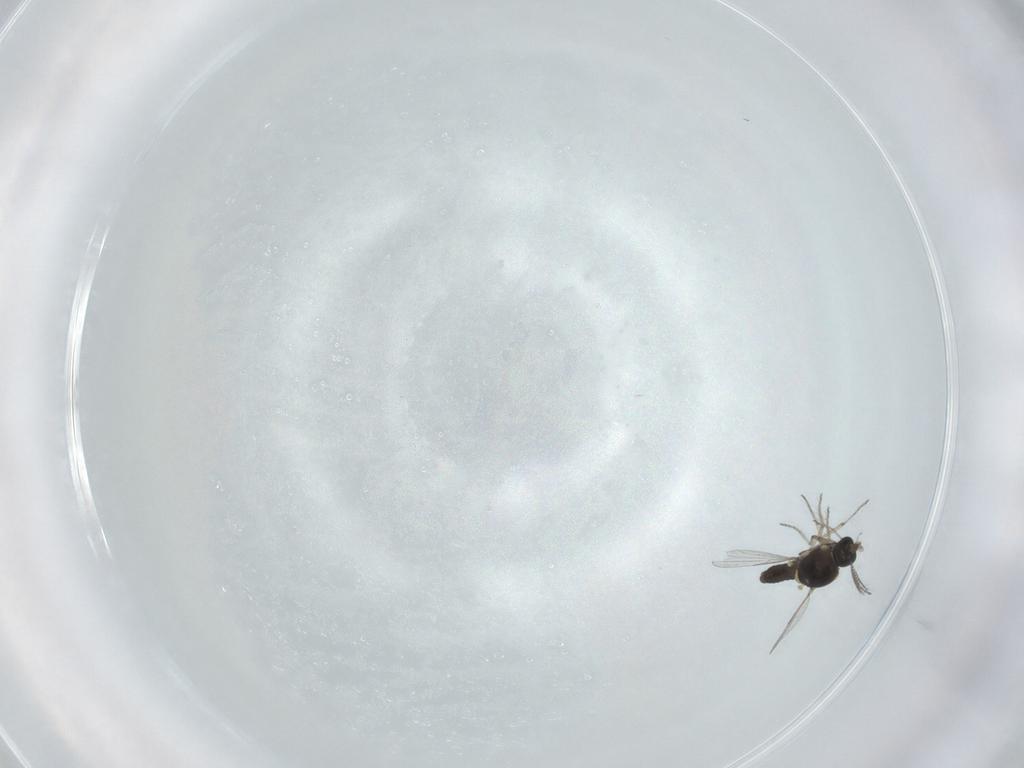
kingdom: Animalia
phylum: Arthropoda
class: Insecta
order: Diptera
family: Ceratopogonidae
